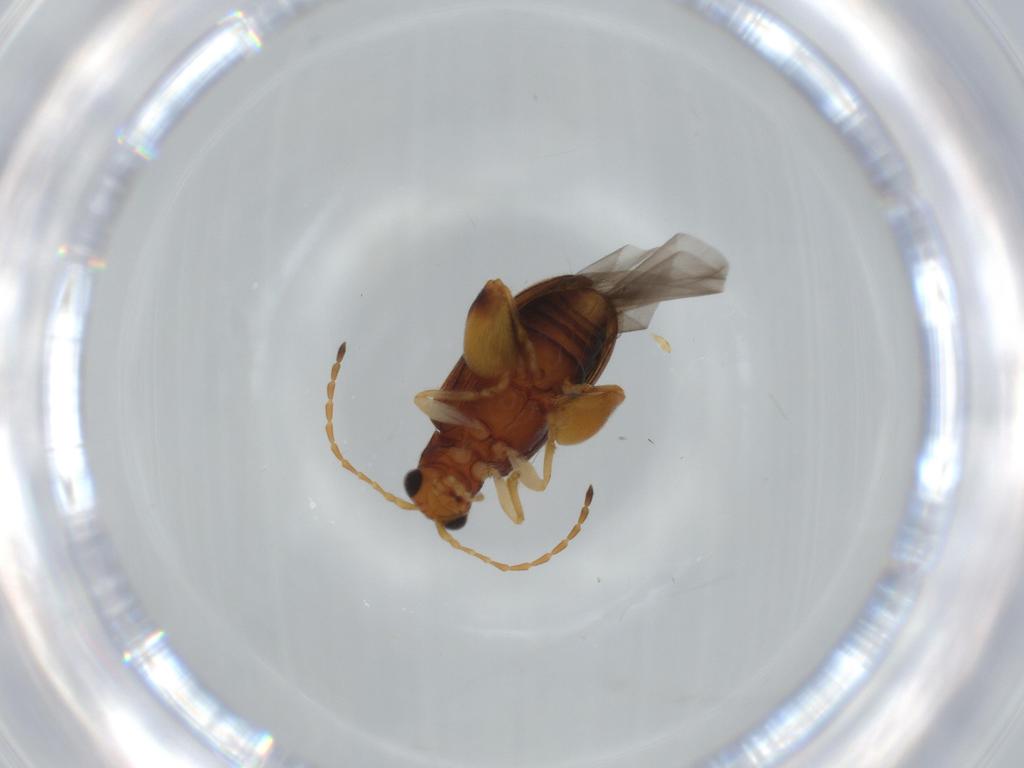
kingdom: Animalia
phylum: Arthropoda
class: Insecta
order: Coleoptera
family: Chrysomelidae
